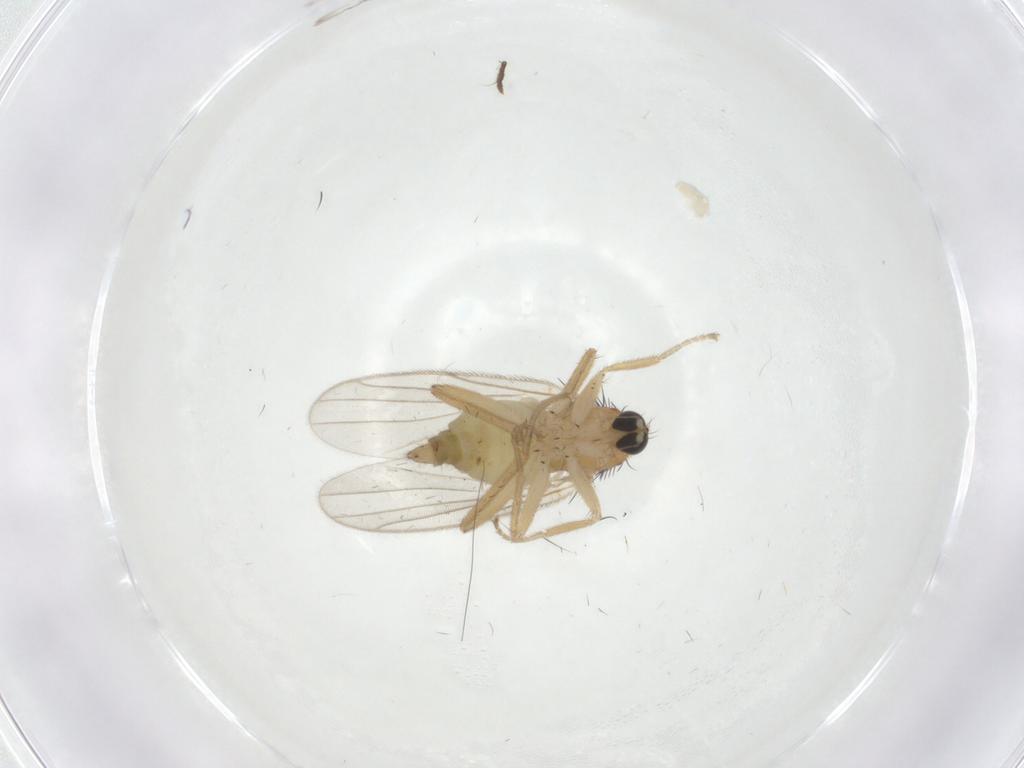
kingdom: Animalia
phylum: Arthropoda
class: Insecta
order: Diptera
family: Hybotidae
